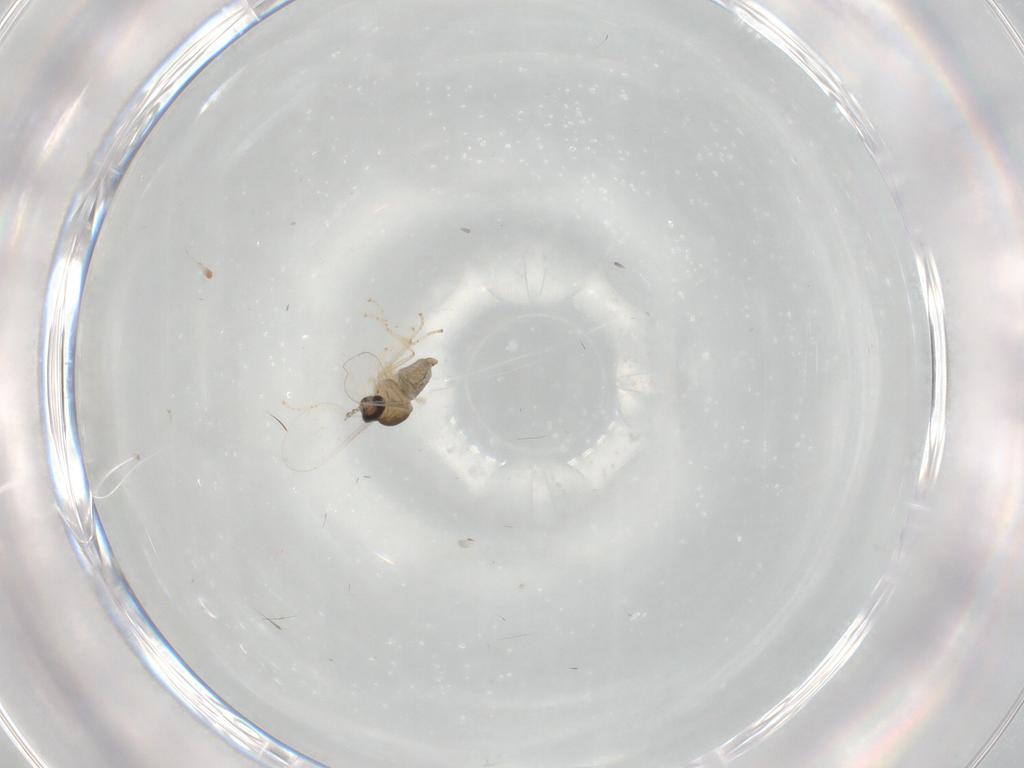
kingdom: Animalia
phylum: Arthropoda
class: Insecta
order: Diptera
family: Cecidomyiidae
